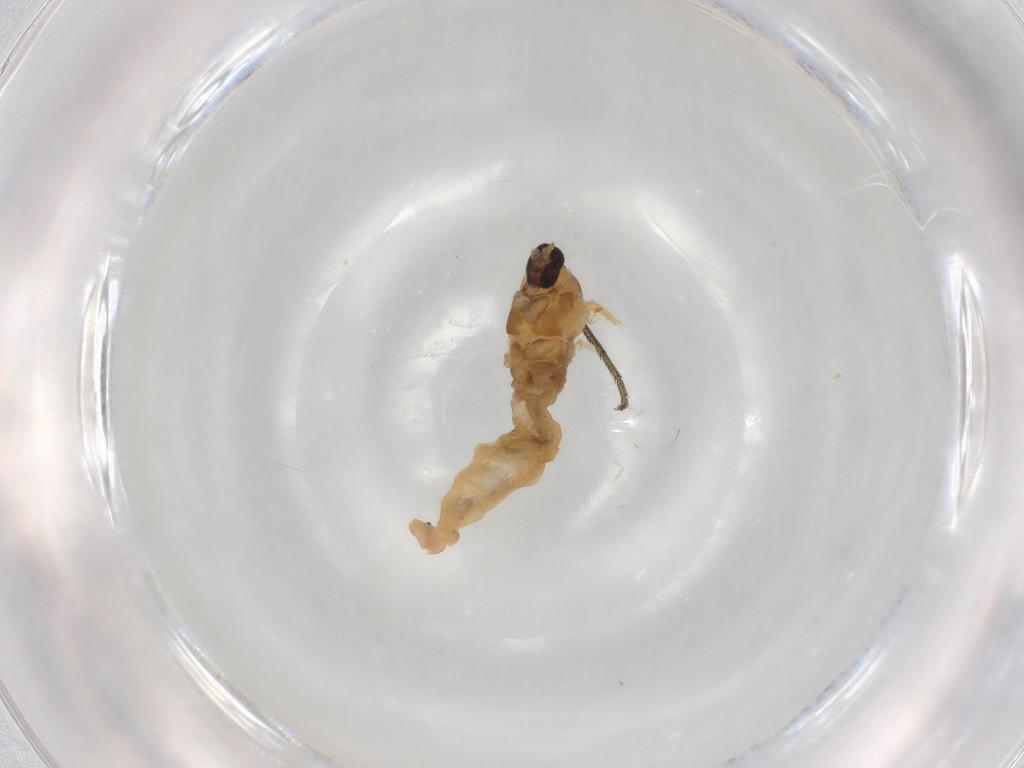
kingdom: Animalia
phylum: Arthropoda
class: Insecta
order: Diptera
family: Cecidomyiidae
